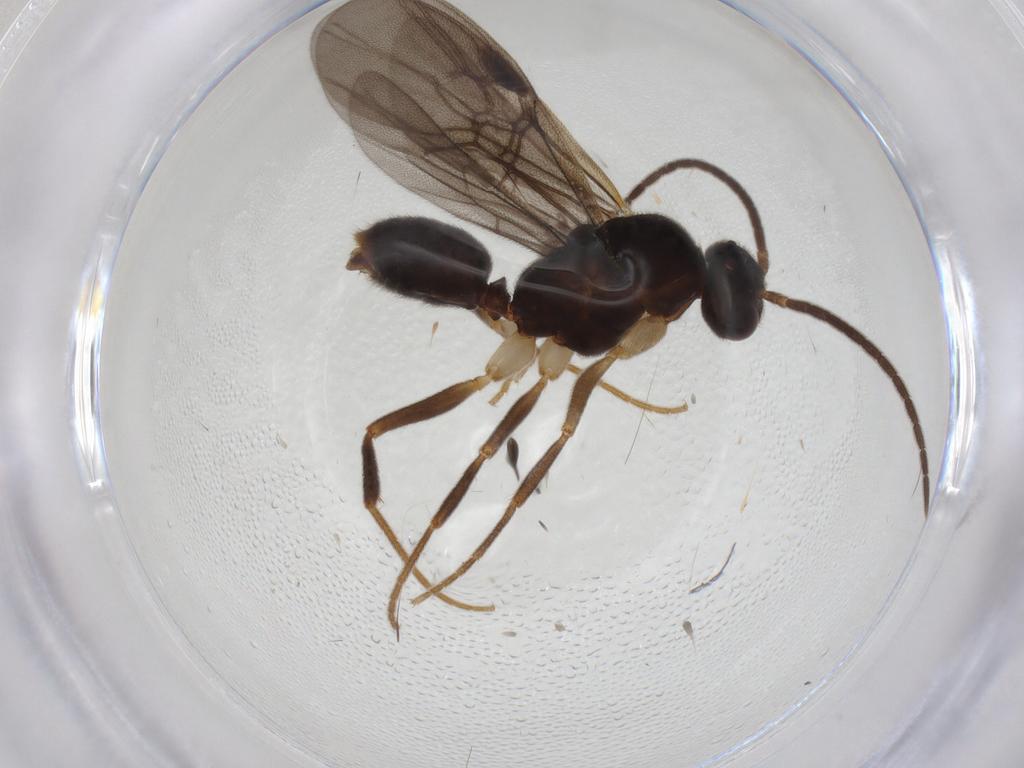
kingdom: Animalia
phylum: Arthropoda
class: Insecta
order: Hymenoptera
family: Formicidae
